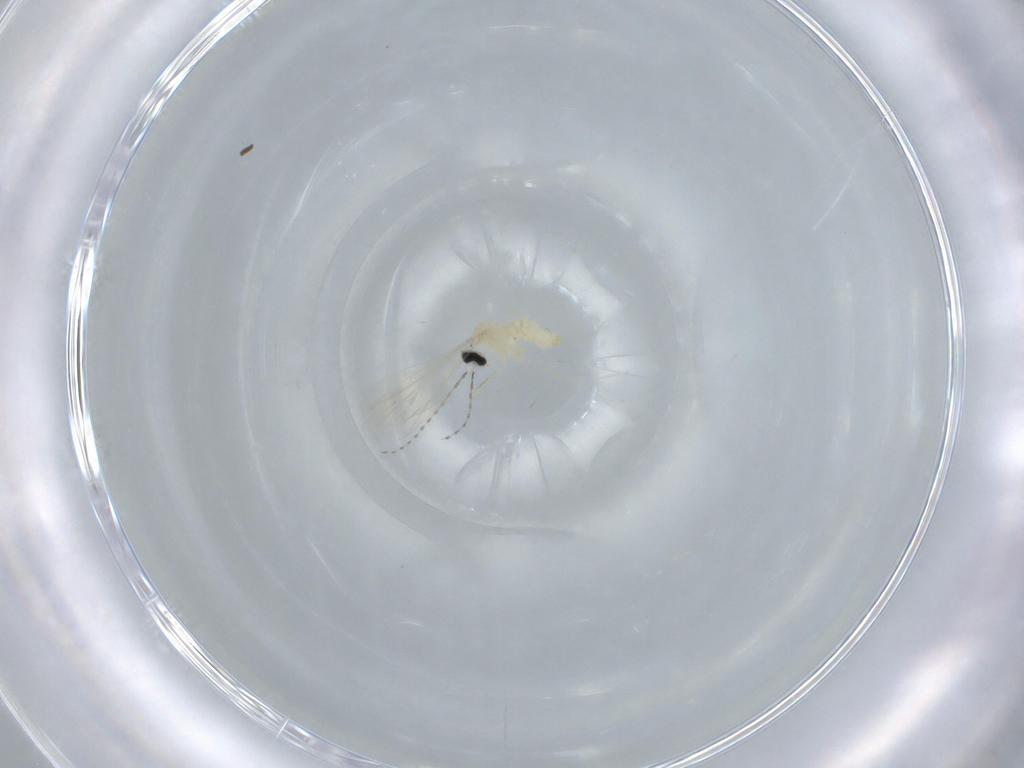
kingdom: Animalia
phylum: Arthropoda
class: Insecta
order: Diptera
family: Cecidomyiidae
